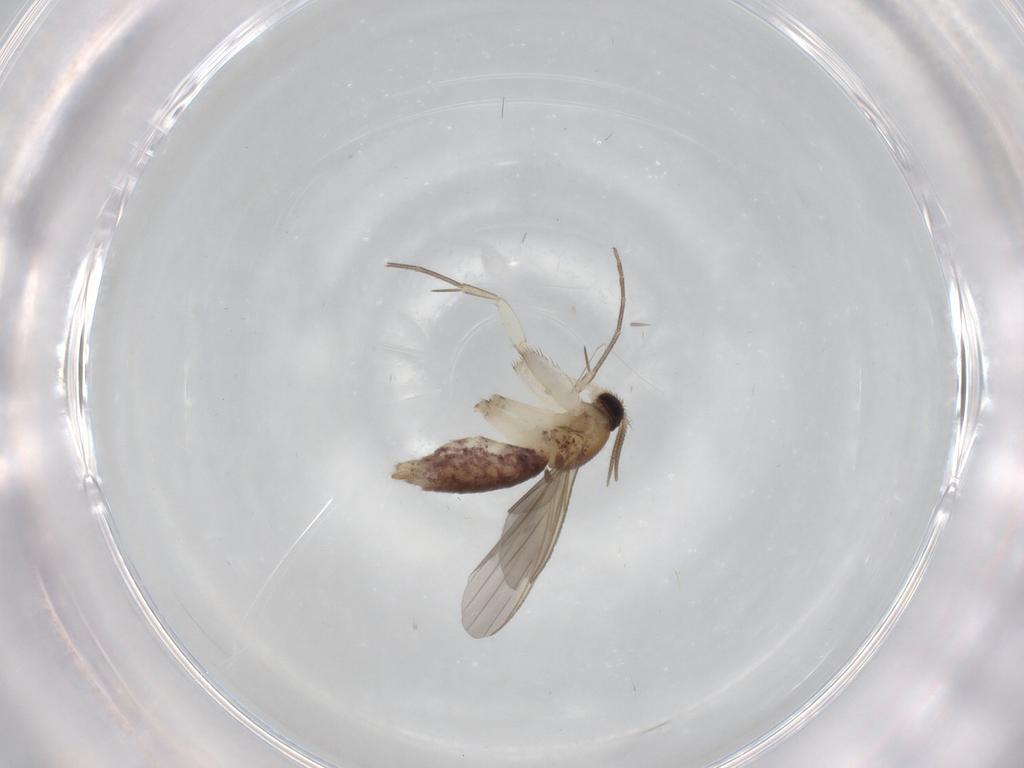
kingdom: Animalia
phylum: Arthropoda
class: Insecta
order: Diptera
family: Mycetophilidae
